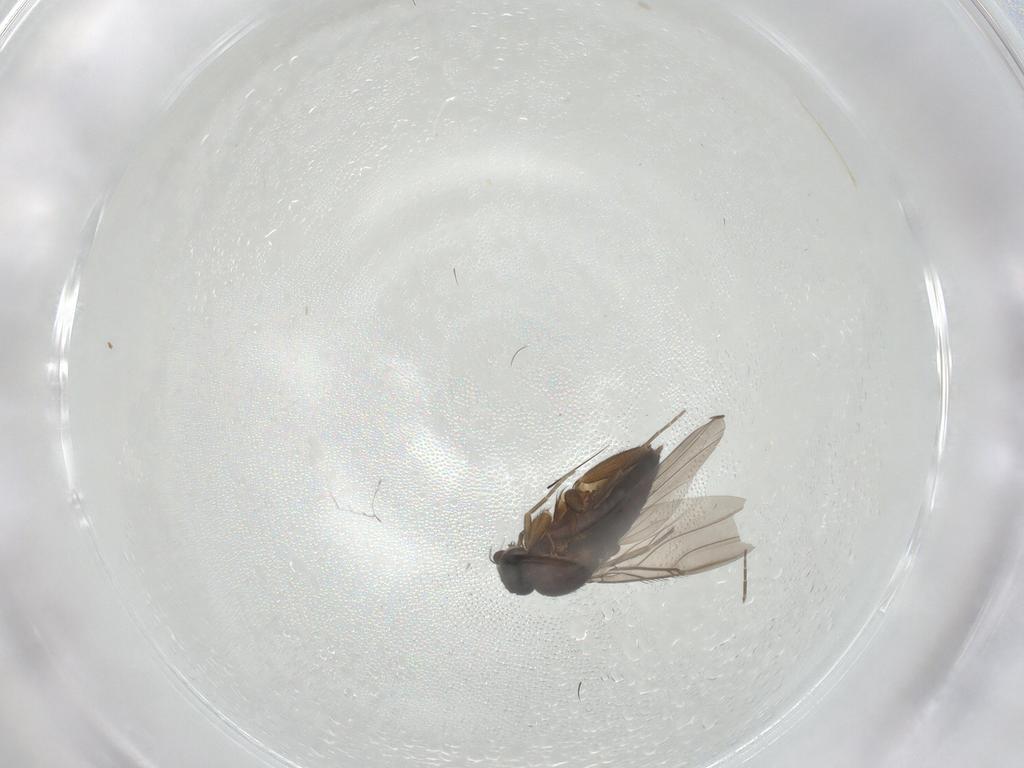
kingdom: Animalia
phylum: Arthropoda
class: Insecta
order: Diptera
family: Phoridae
